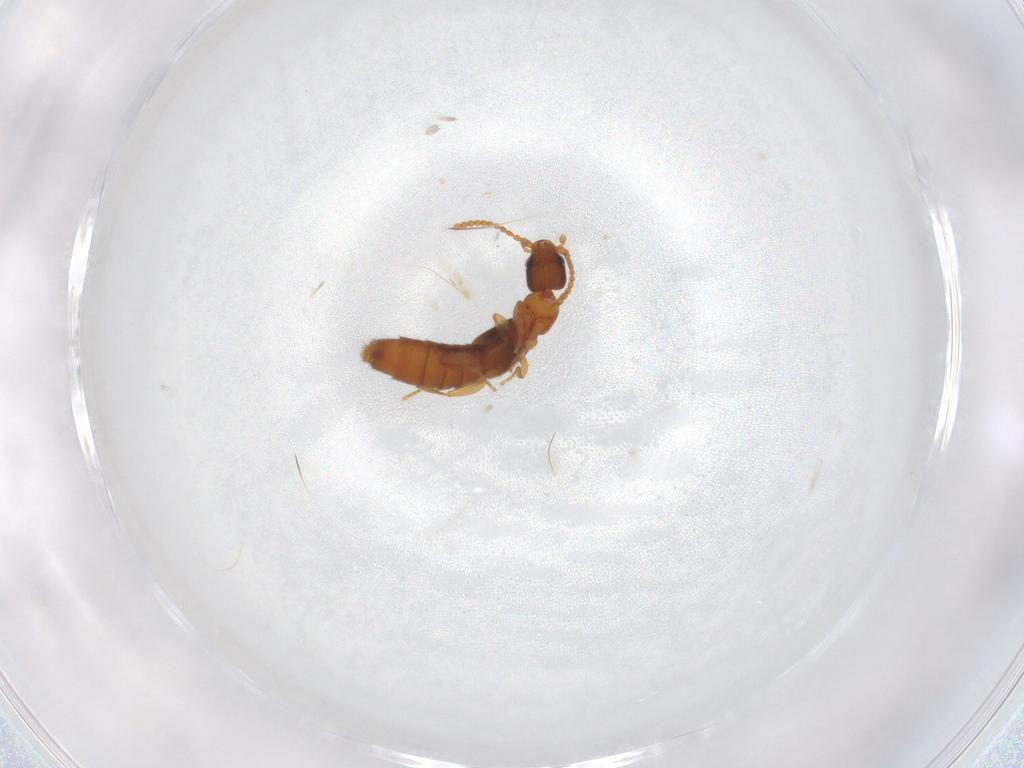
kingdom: Animalia
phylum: Arthropoda
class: Insecta
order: Coleoptera
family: Staphylinidae
